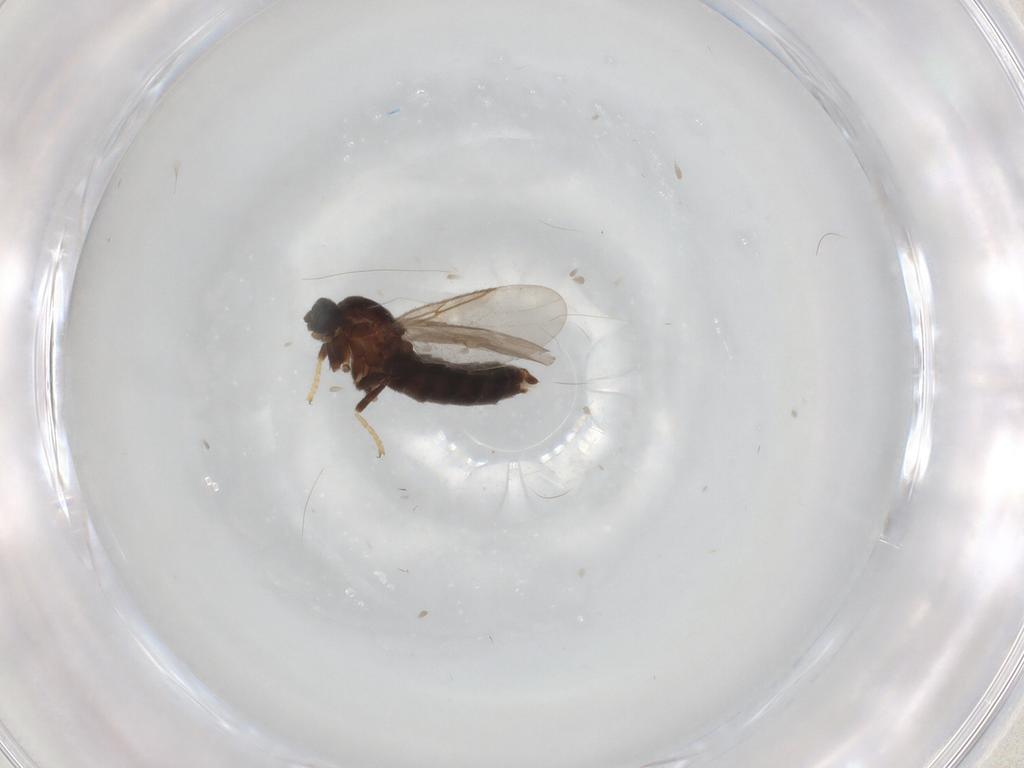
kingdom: Animalia
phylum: Arthropoda
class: Insecta
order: Diptera
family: Scatopsidae
